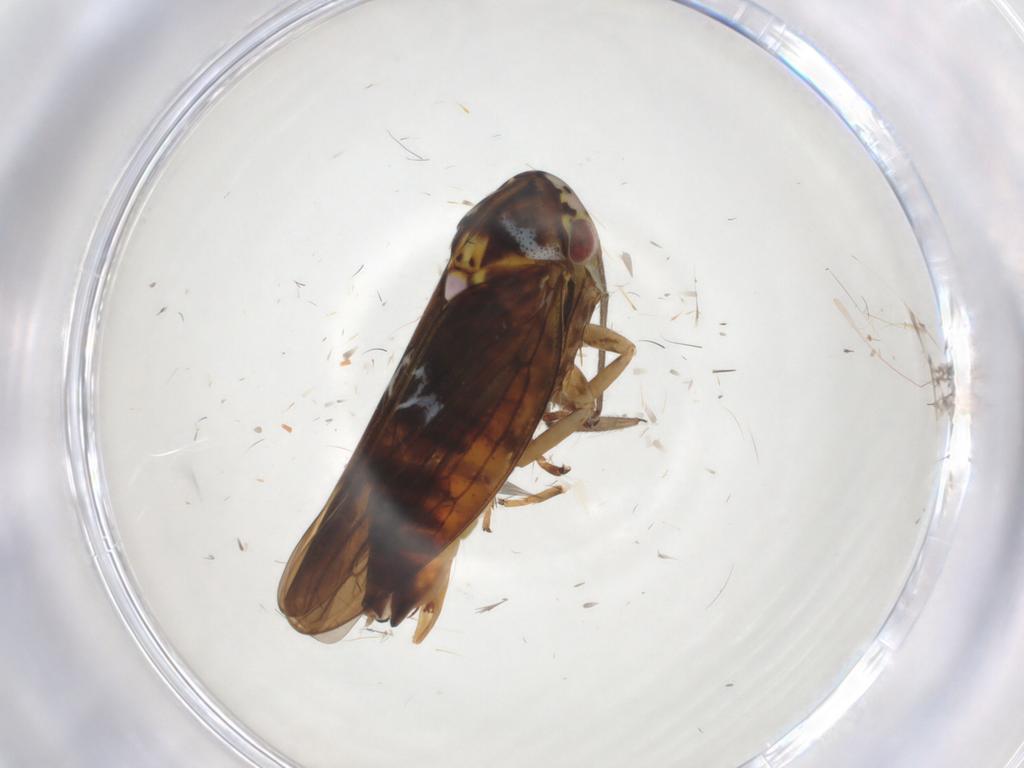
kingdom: Animalia
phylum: Arthropoda
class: Insecta
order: Hemiptera
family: Cicadellidae
